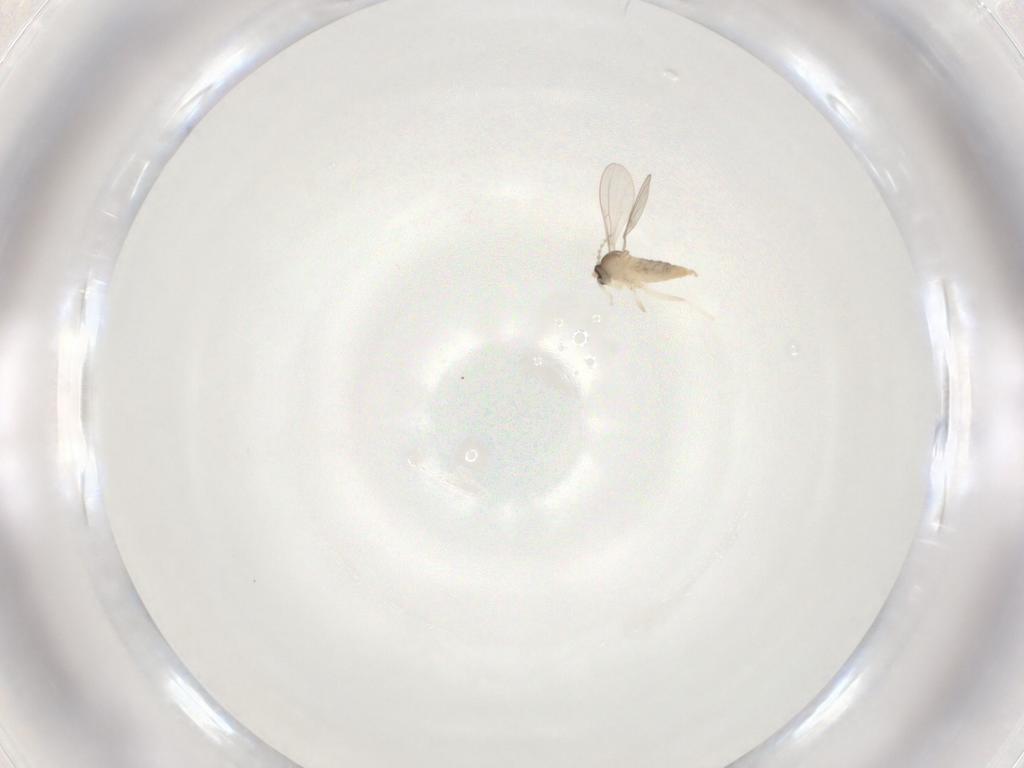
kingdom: Animalia
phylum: Arthropoda
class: Insecta
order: Diptera
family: Cecidomyiidae
